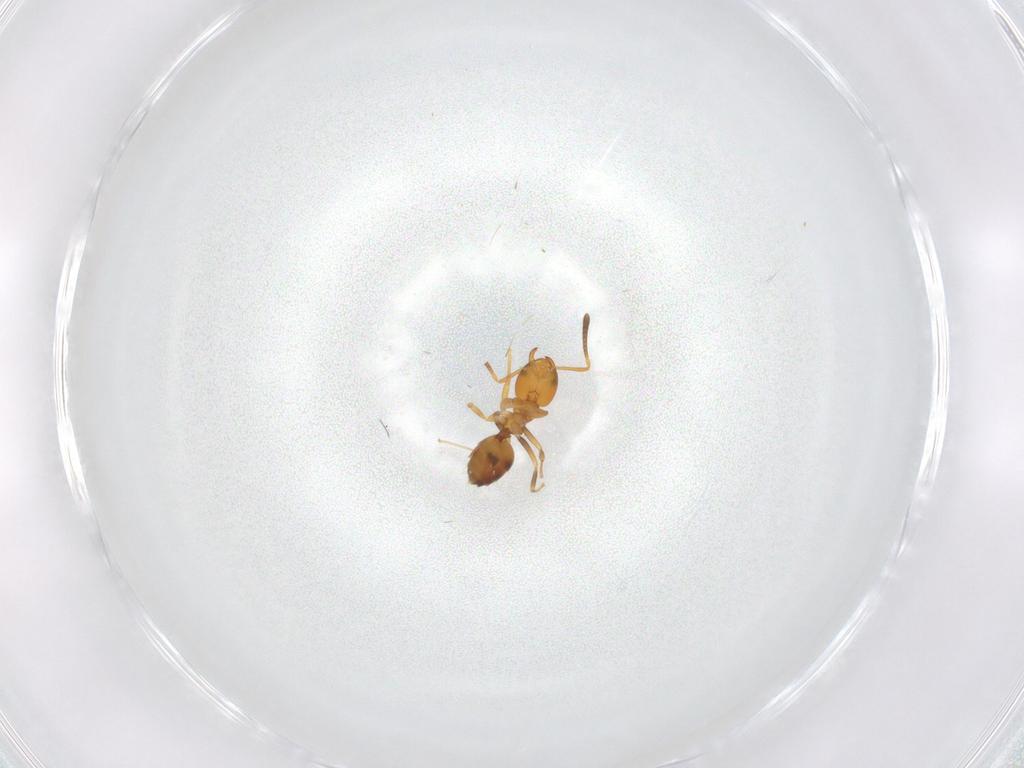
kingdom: Animalia
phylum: Arthropoda
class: Insecta
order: Hymenoptera
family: Formicidae
